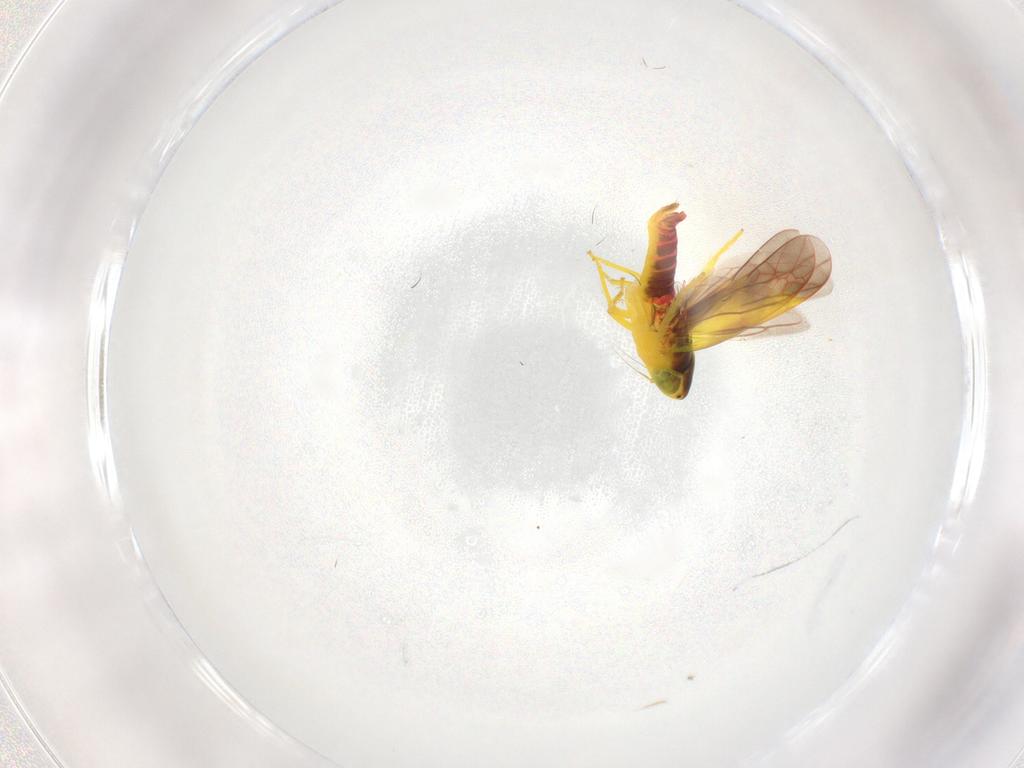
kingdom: Animalia
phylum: Arthropoda
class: Insecta
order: Hemiptera
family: Cicadellidae
